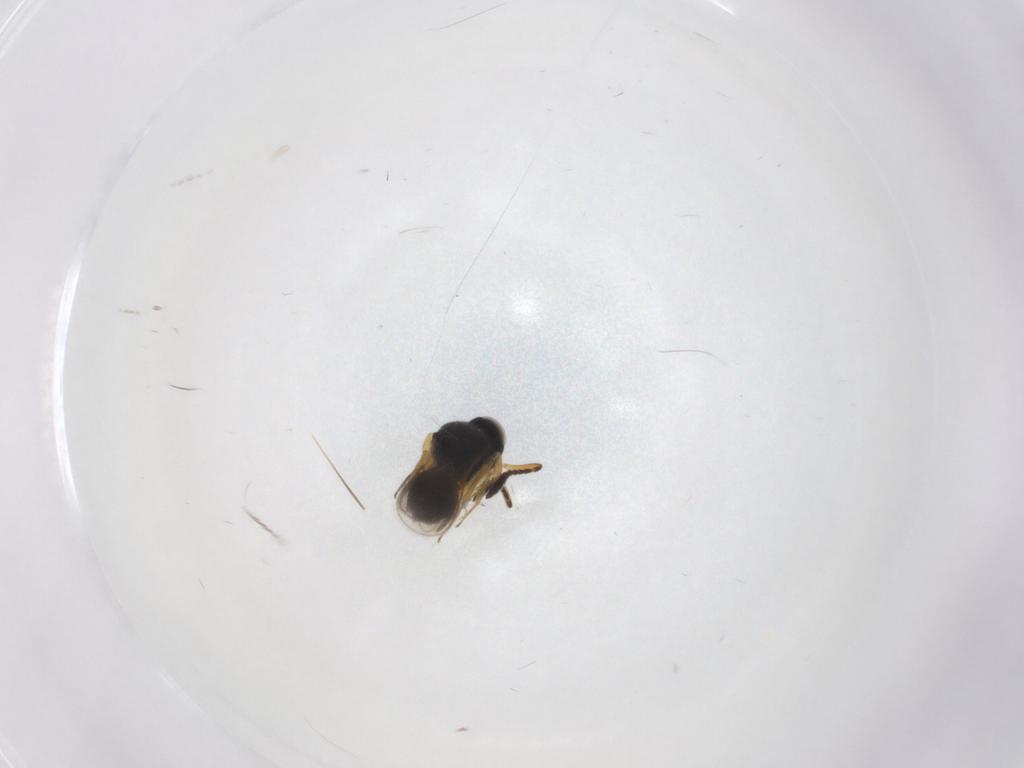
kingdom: Animalia
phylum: Arthropoda
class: Insecta
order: Hymenoptera
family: Scelionidae
